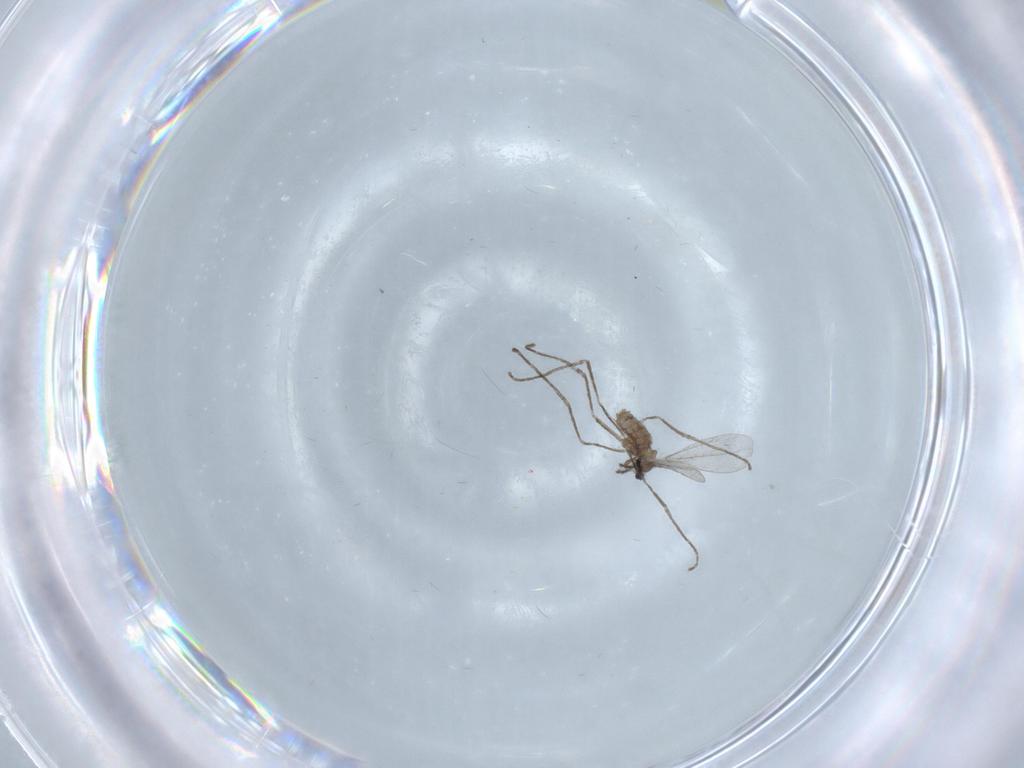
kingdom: Animalia
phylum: Arthropoda
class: Insecta
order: Diptera
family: Cecidomyiidae
